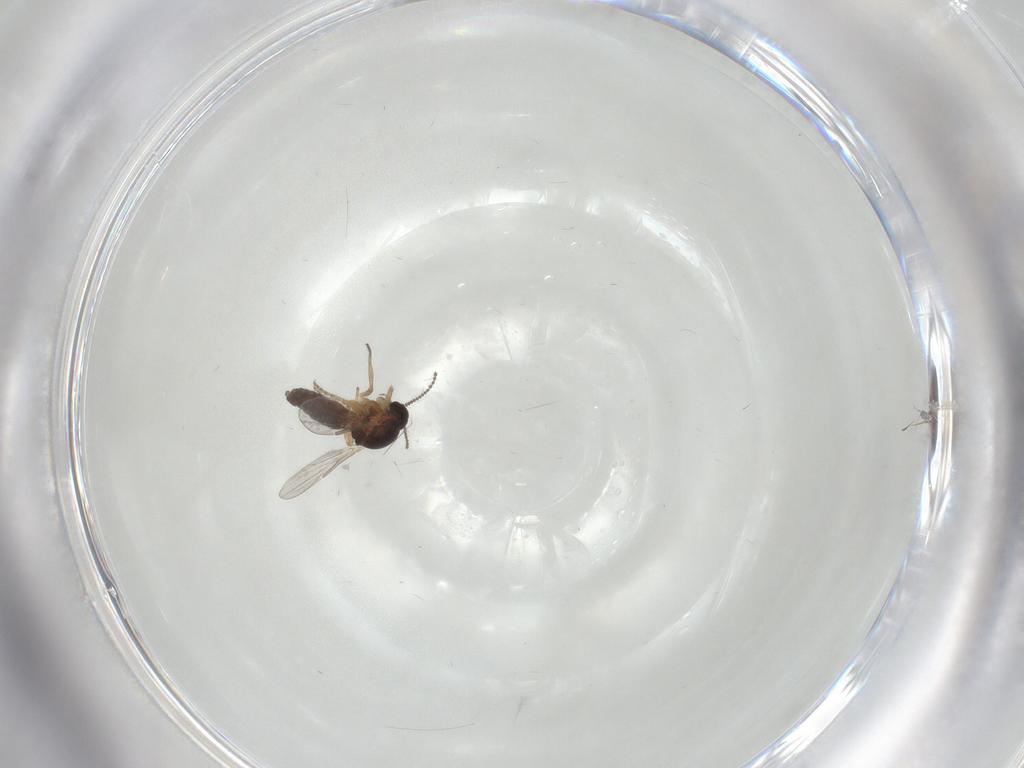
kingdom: Animalia
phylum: Arthropoda
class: Insecta
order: Diptera
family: Ceratopogonidae
